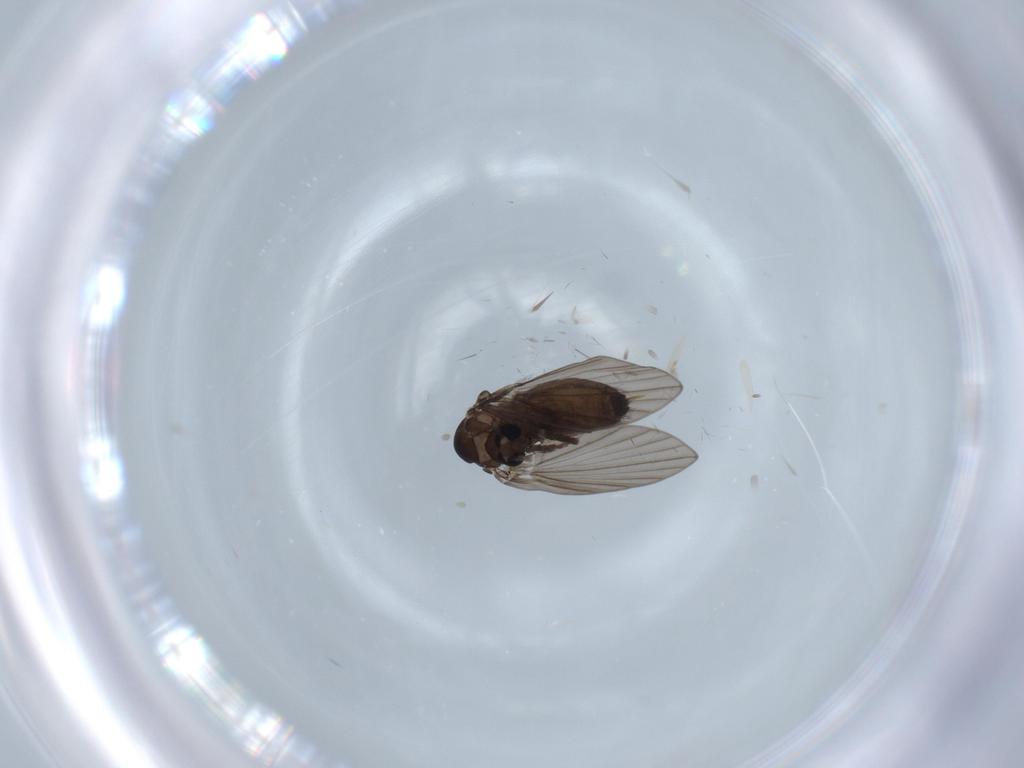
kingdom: Animalia
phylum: Arthropoda
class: Insecta
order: Diptera
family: Psychodidae
